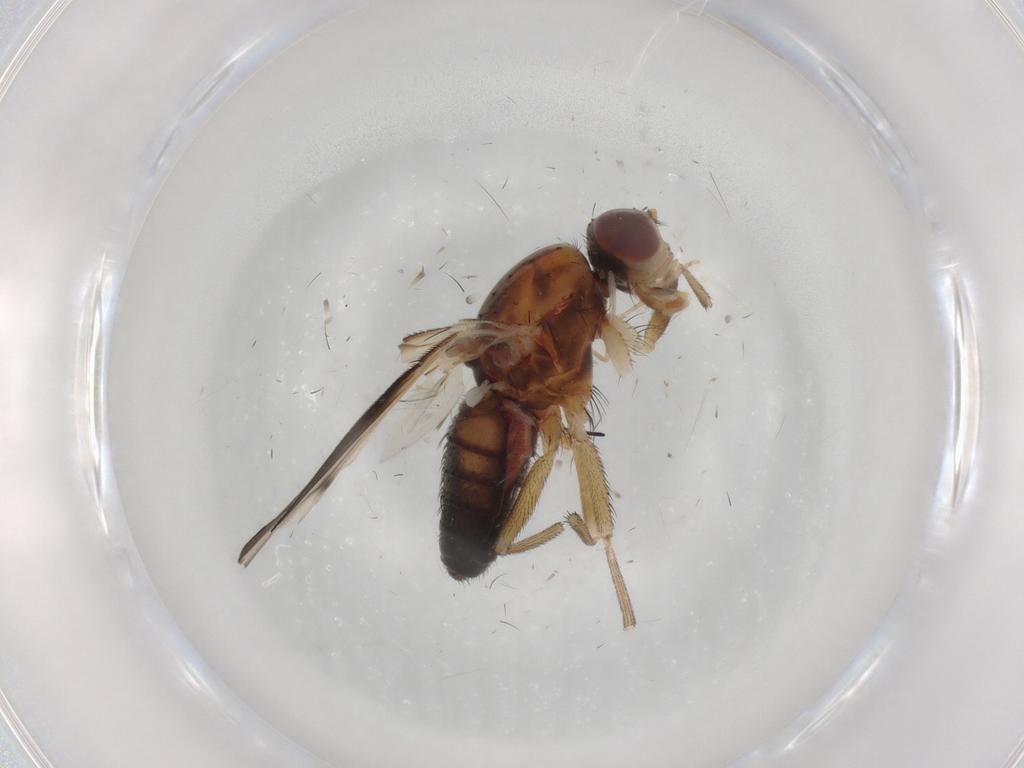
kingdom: Animalia
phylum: Arthropoda
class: Insecta
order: Diptera
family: Heleomyzidae
